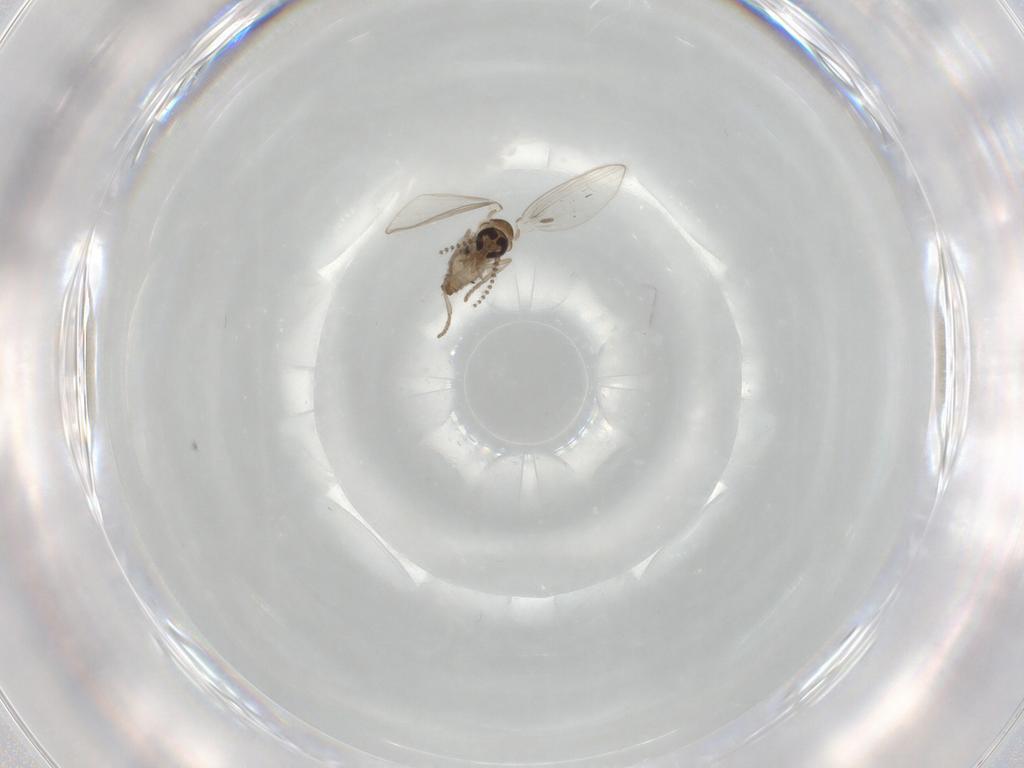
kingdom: Animalia
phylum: Arthropoda
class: Insecta
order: Diptera
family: Psychodidae
